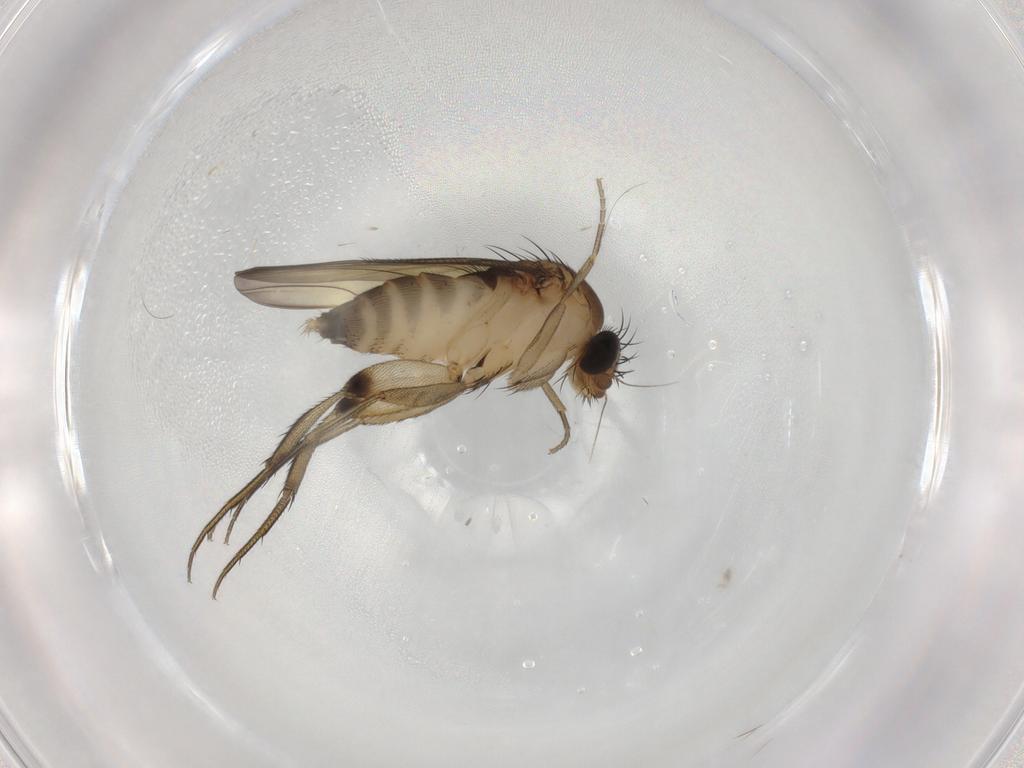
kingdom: Animalia
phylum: Arthropoda
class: Insecta
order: Diptera
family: Phoridae
